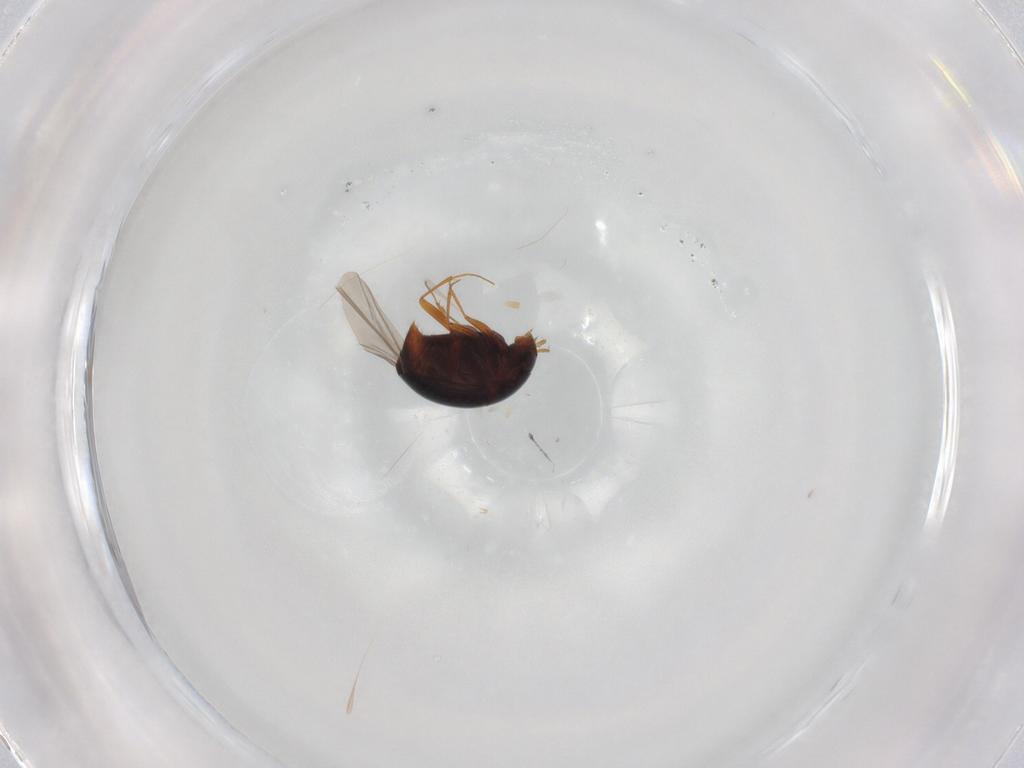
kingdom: Animalia
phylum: Arthropoda
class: Insecta
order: Coleoptera
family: Staphylinidae
